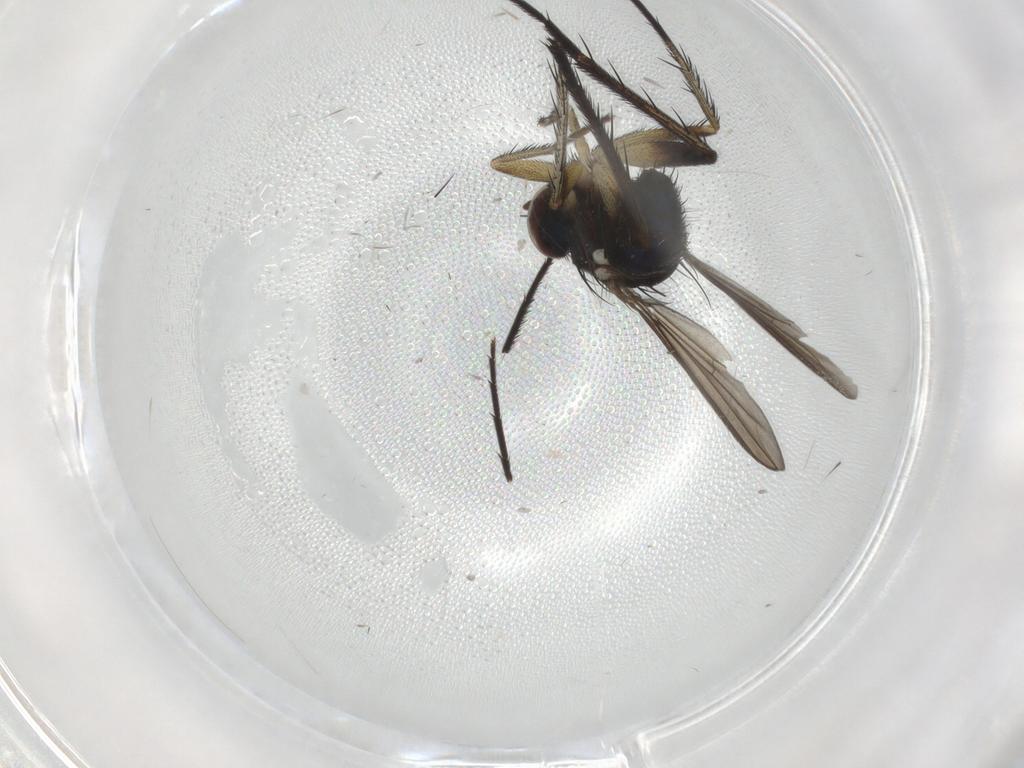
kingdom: Animalia
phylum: Arthropoda
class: Insecta
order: Diptera
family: Dolichopodidae
